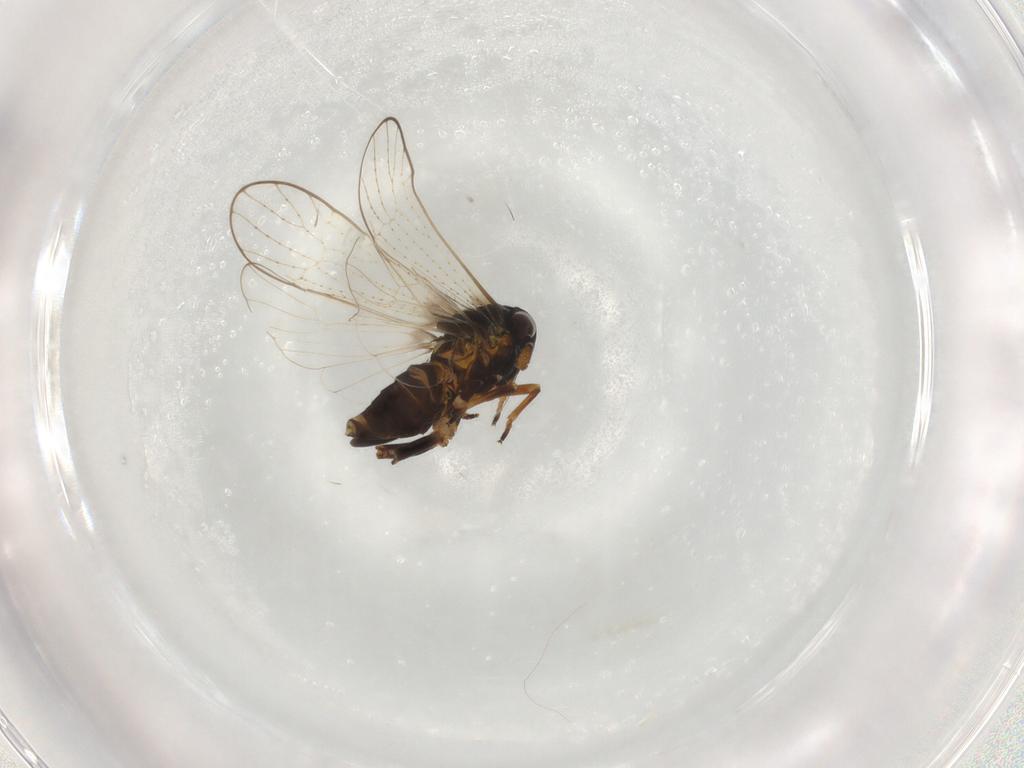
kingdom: Animalia
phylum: Arthropoda
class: Insecta
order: Hemiptera
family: Delphacidae
